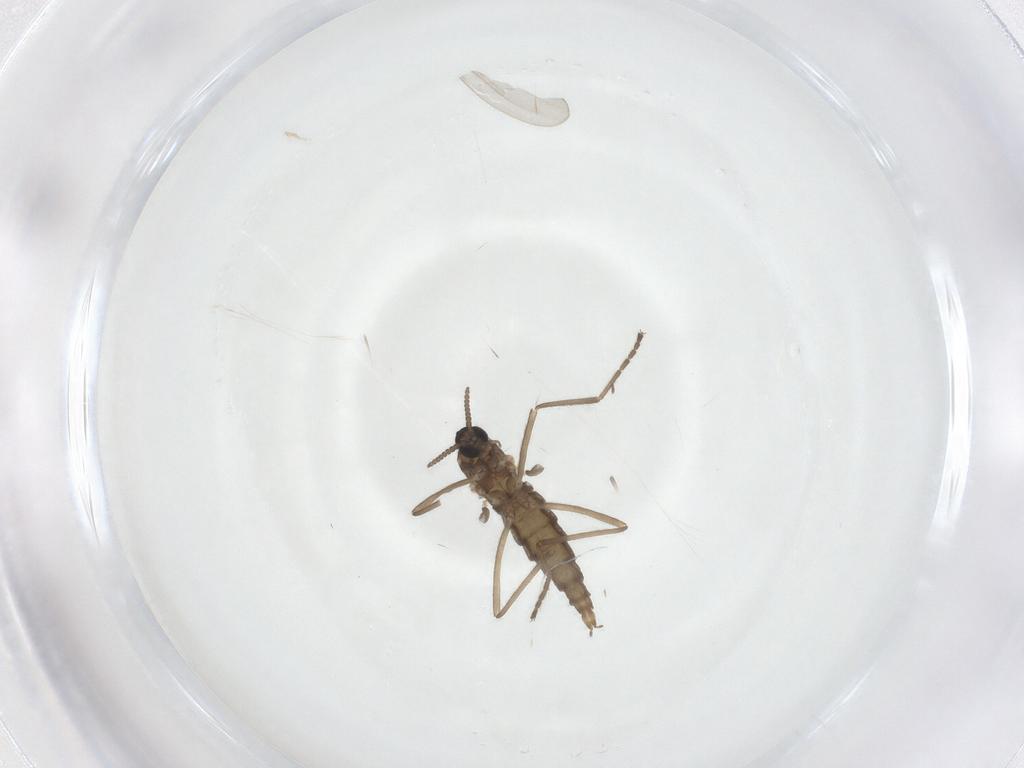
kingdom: Animalia
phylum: Arthropoda
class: Insecta
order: Diptera
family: Cecidomyiidae
